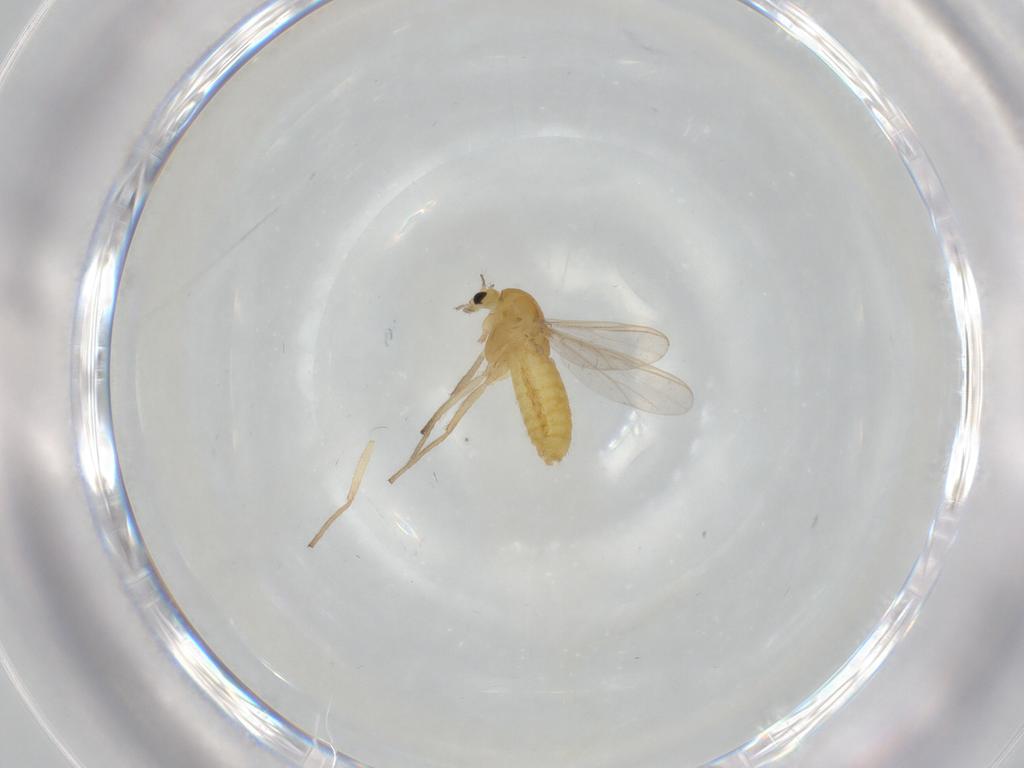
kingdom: Animalia
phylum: Arthropoda
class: Insecta
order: Diptera
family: Chironomidae
